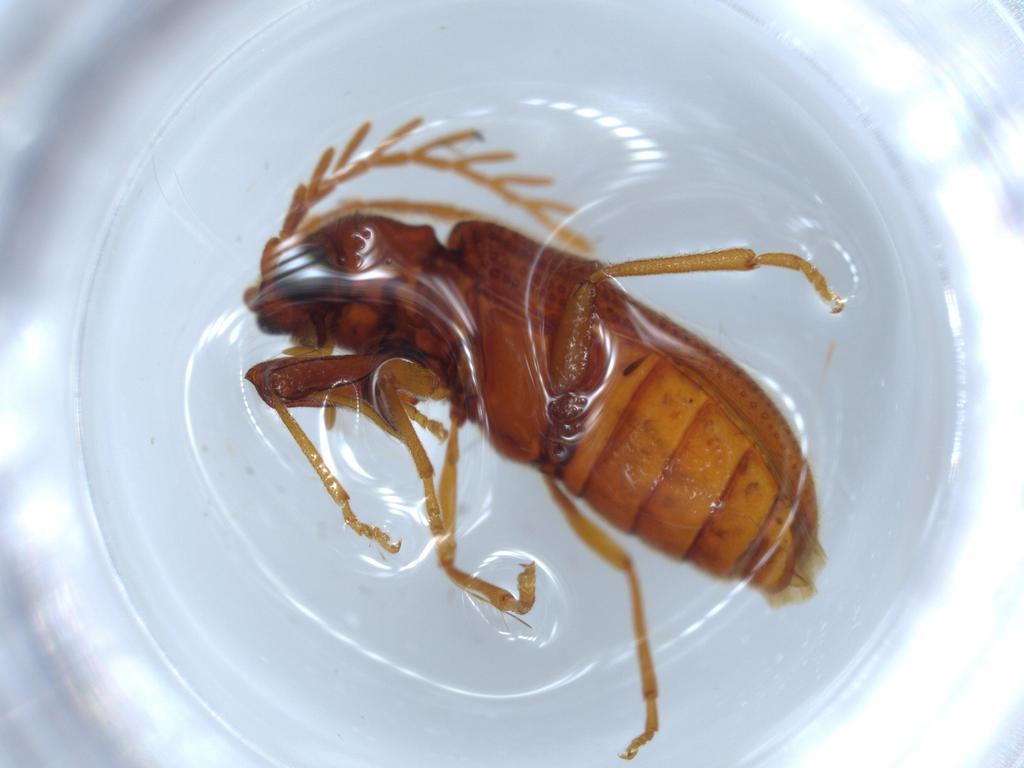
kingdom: Animalia
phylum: Arthropoda
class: Insecta
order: Coleoptera
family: Cerophytidae
